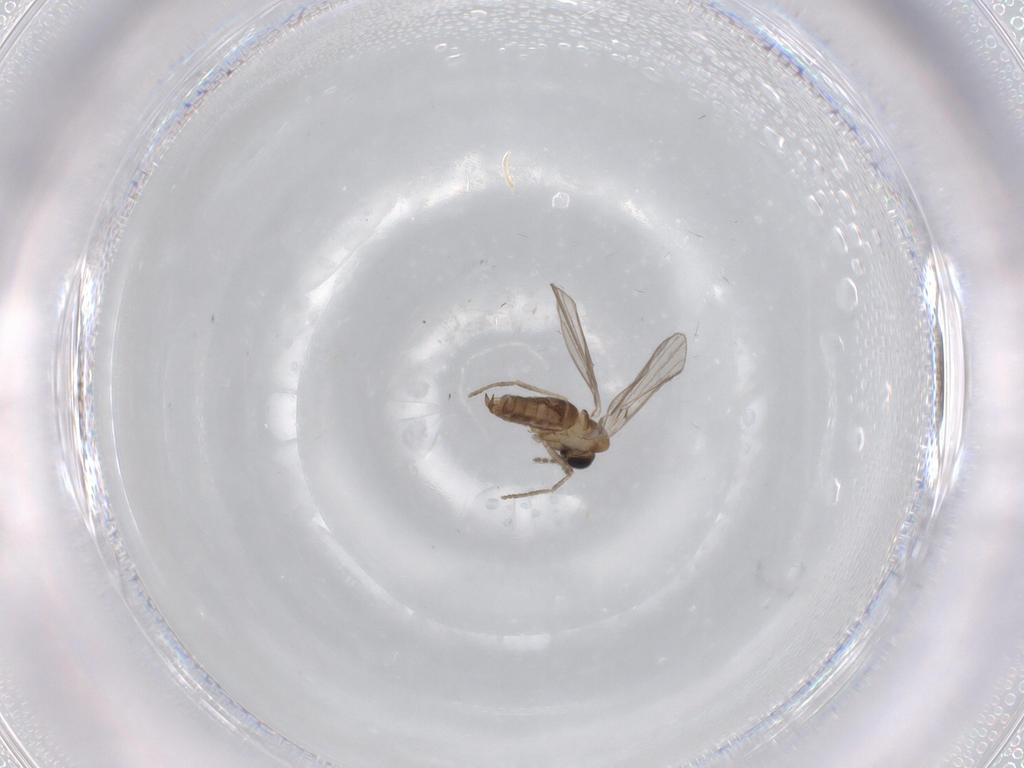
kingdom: Animalia
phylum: Arthropoda
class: Insecta
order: Diptera
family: Psychodidae
